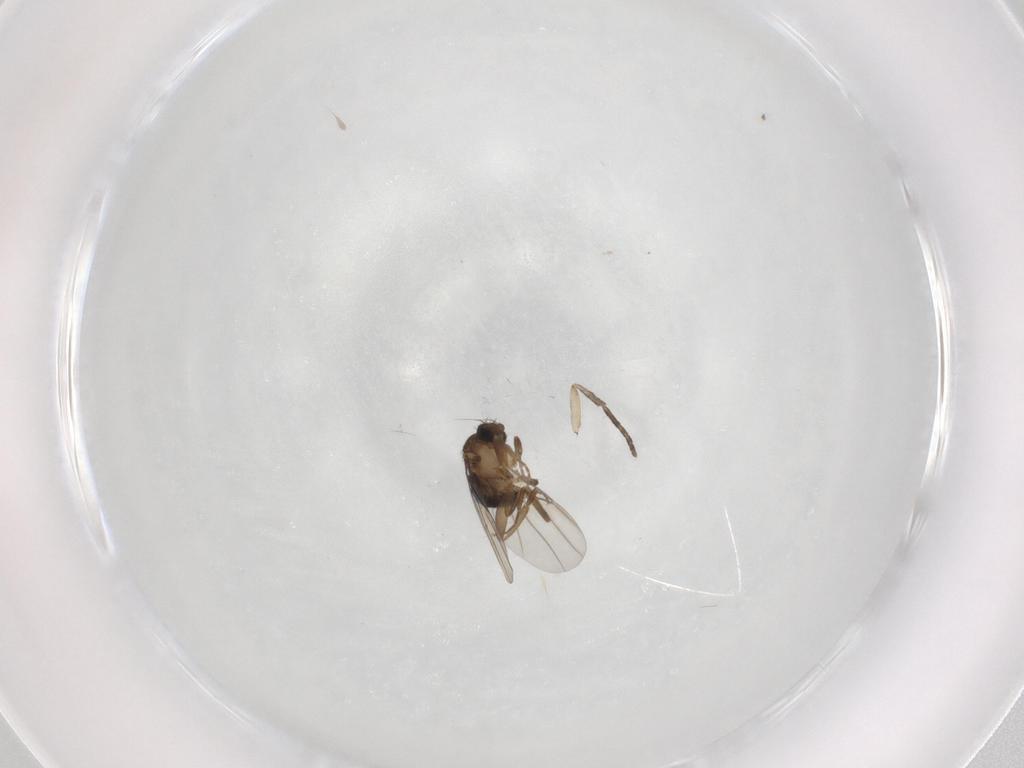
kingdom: Animalia
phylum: Arthropoda
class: Insecta
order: Diptera
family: Phoridae
